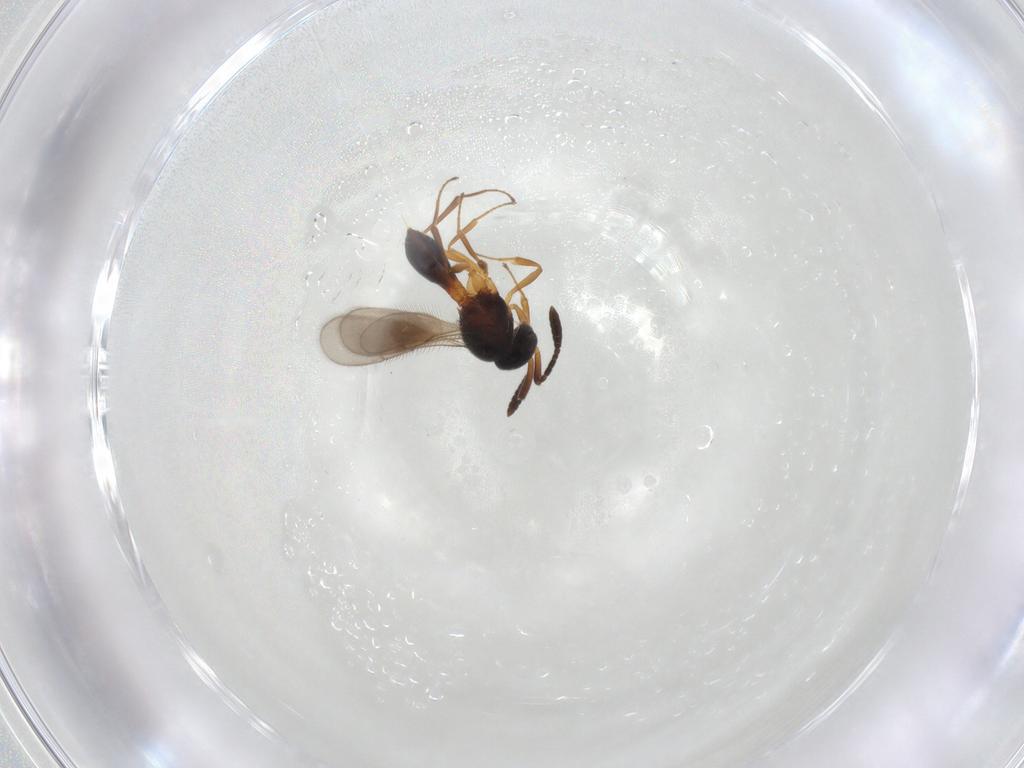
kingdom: Animalia
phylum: Arthropoda
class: Insecta
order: Hymenoptera
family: Scelionidae
